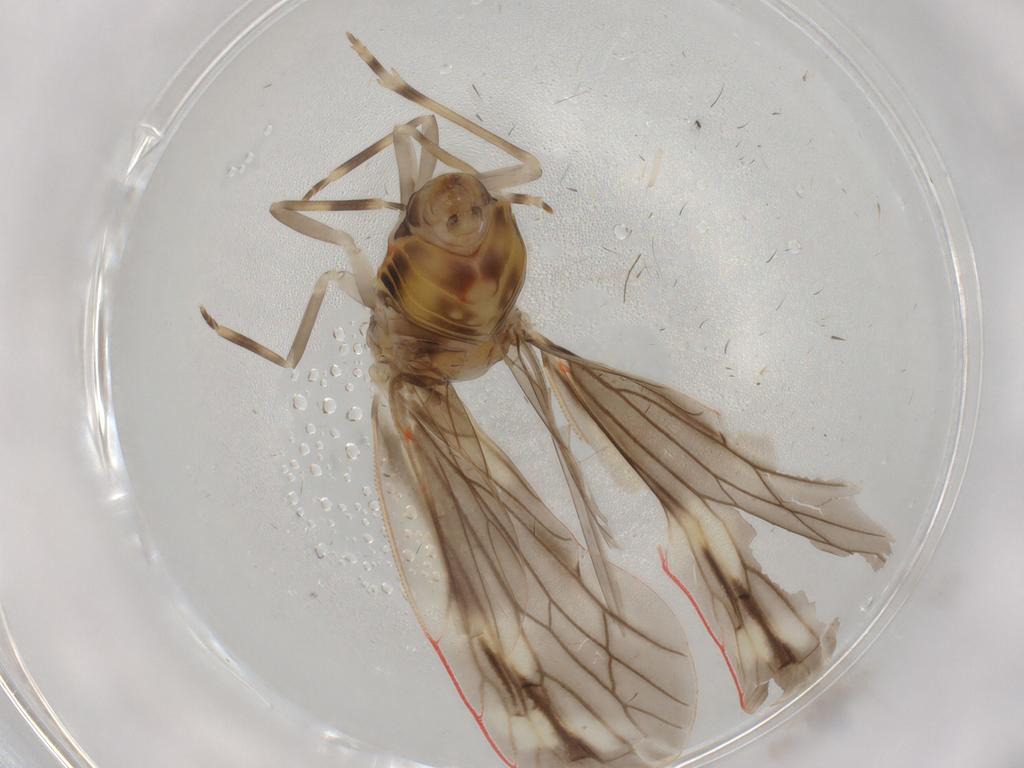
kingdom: Animalia
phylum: Arthropoda
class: Insecta
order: Hemiptera
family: Derbidae
